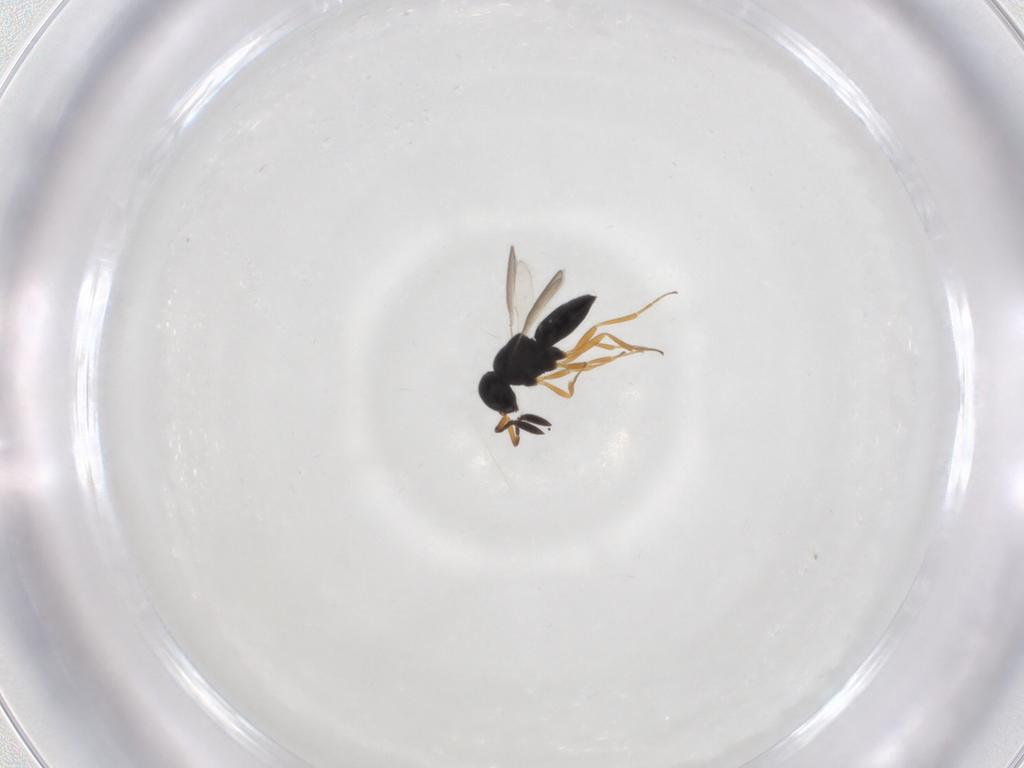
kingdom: Animalia
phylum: Arthropoda
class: Insecta
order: Hymenoptera
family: Scelionidae
